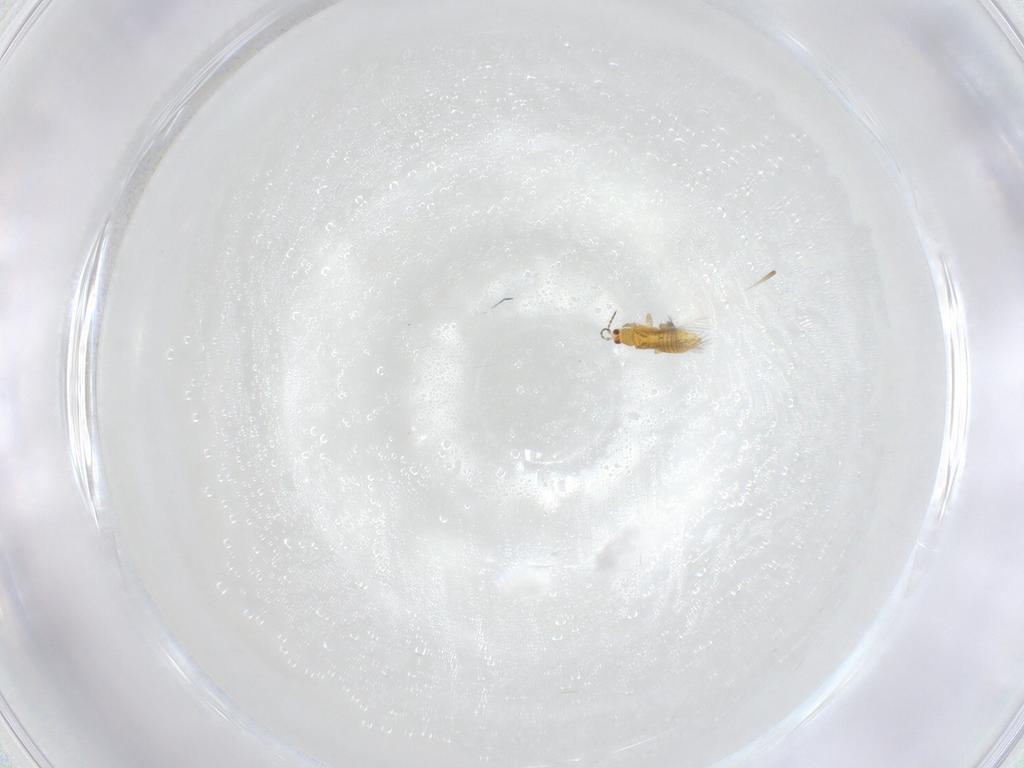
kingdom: Animalia
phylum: Arthropoda
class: Insecta
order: Thysanoptera
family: Thripidae
